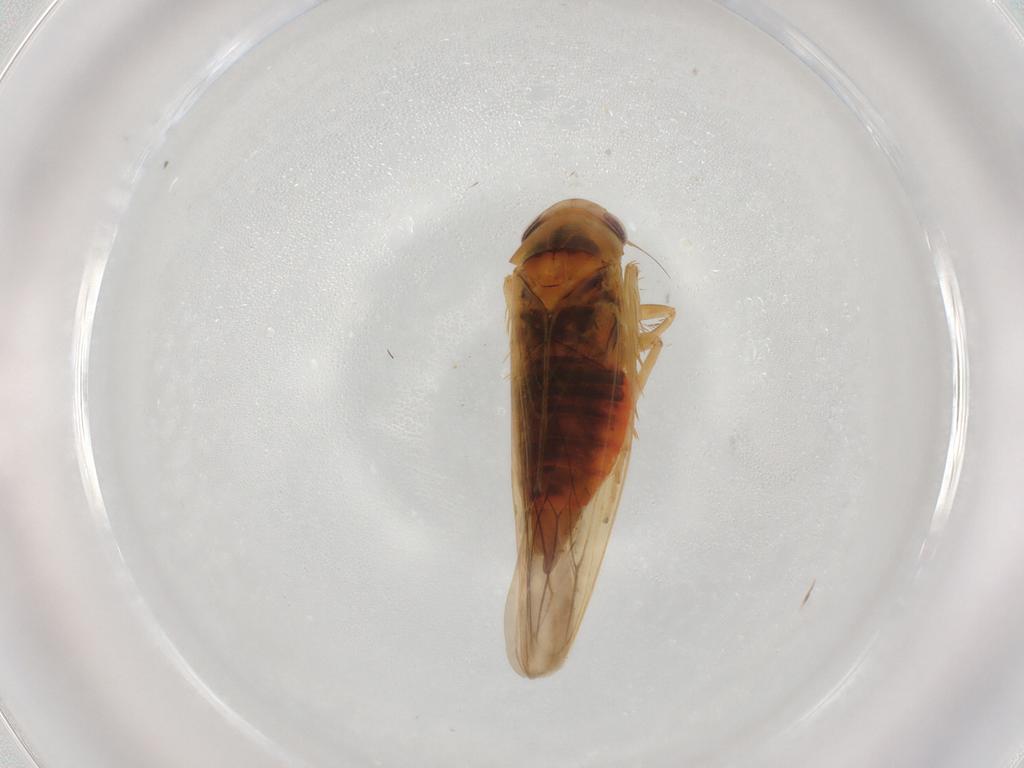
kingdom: Animalia
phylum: Arthropoda
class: Insecta
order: Hemiptera
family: Cicadellidae
